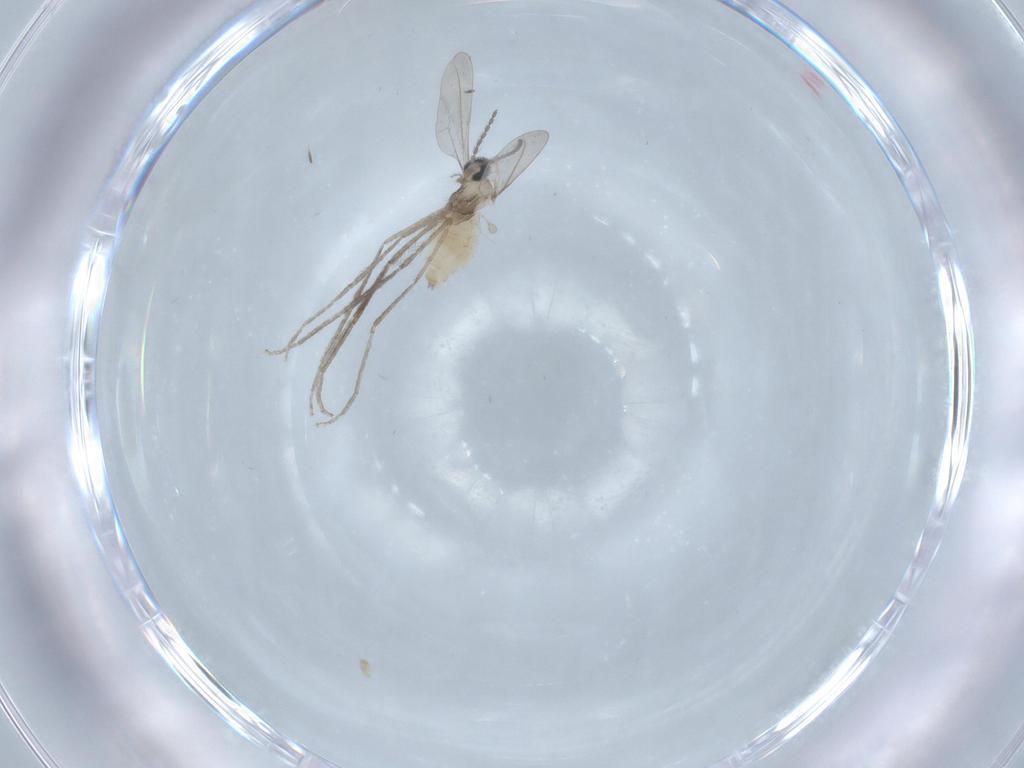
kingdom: Animalia
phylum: Arthropoda
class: Insecta
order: Diptera
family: Cecidomyiidae
